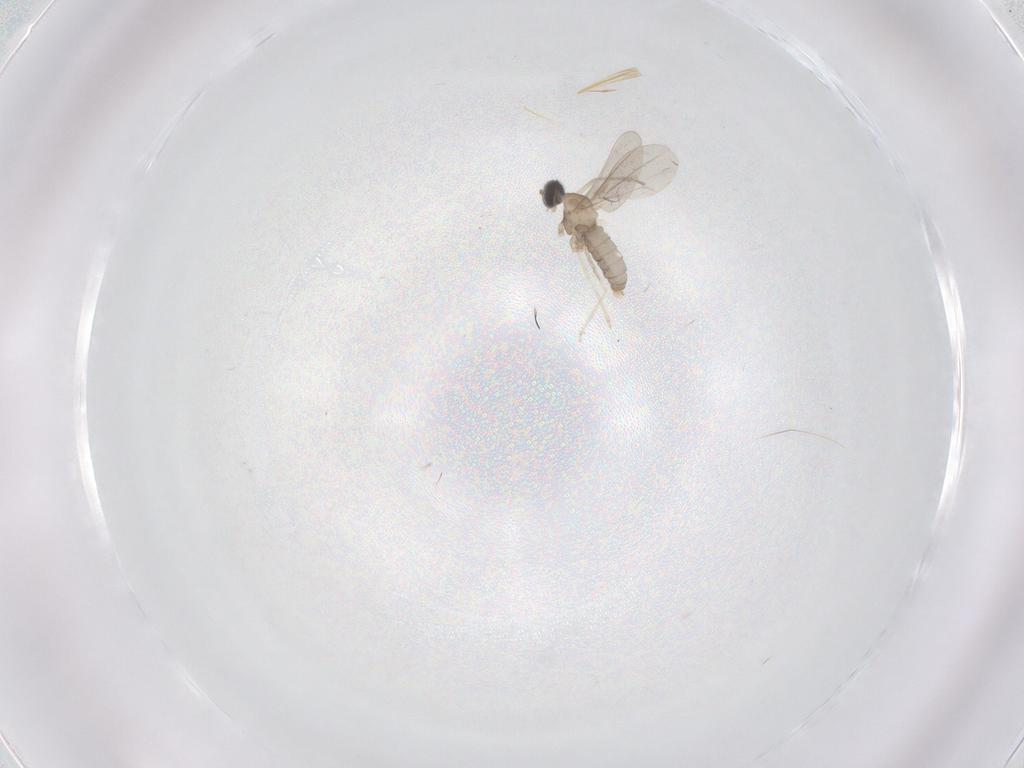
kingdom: Animalia
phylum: Arthropoda
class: Insecta
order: Diptera
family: Cecidomyiidae
